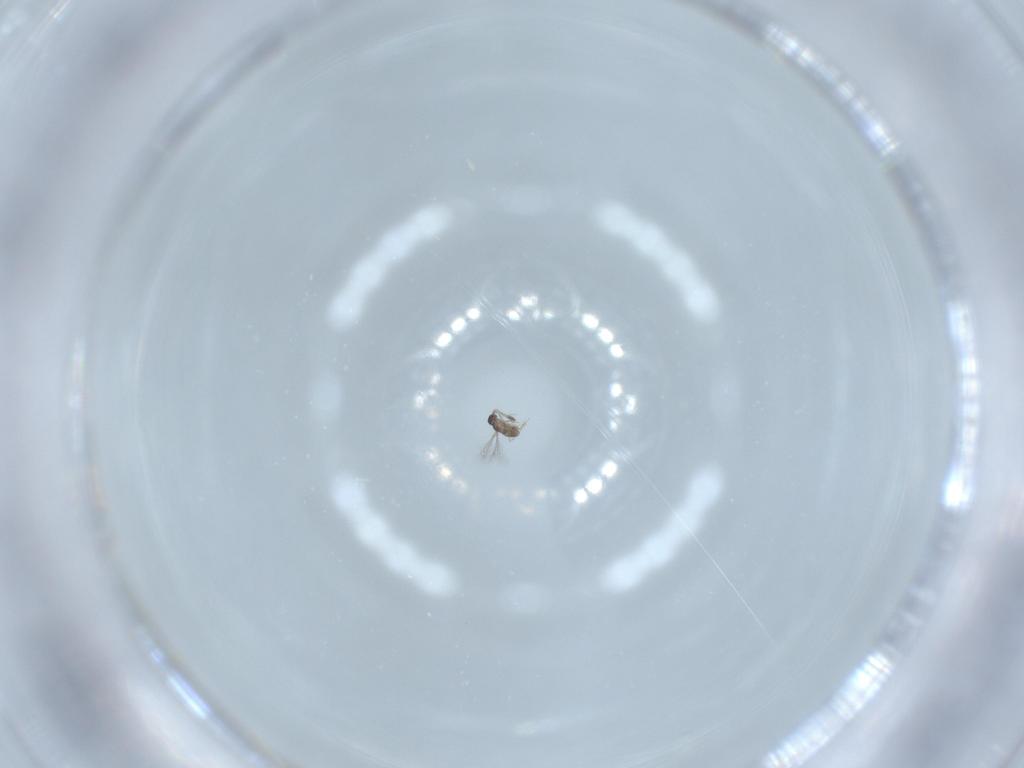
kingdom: Animalia
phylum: Arthropoda
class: Insecta
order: Hymenoptera
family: Mymaridae
